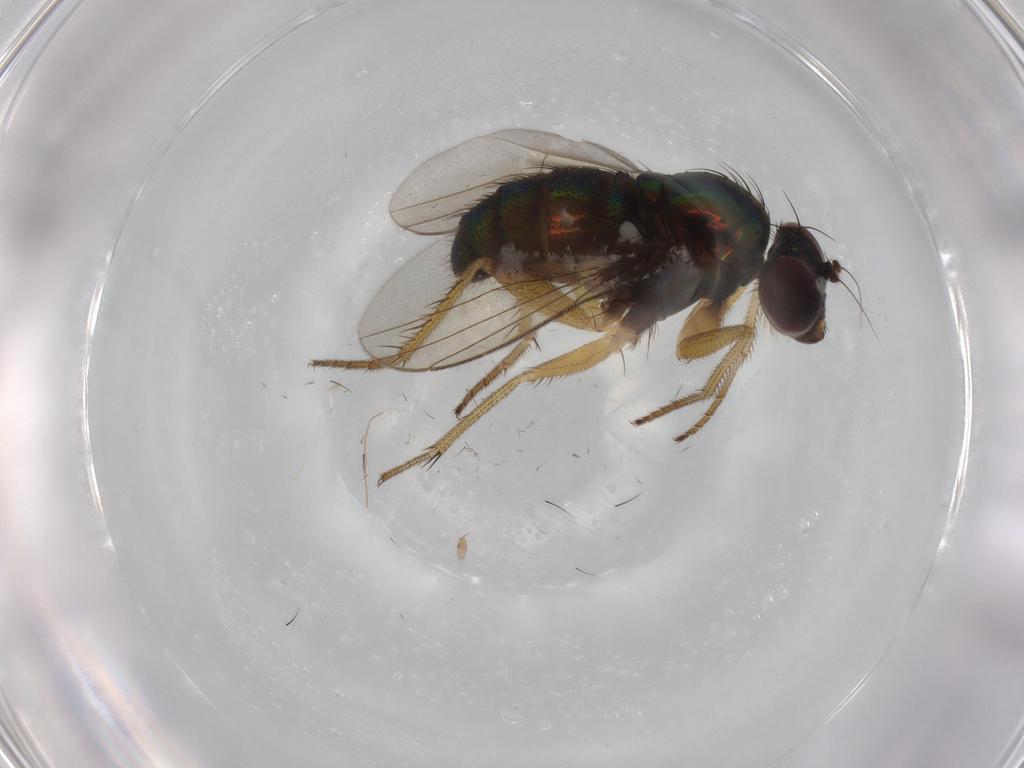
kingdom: Animalia
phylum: Arthropoda
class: Insecta
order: Diptera
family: Dolichopodidae
